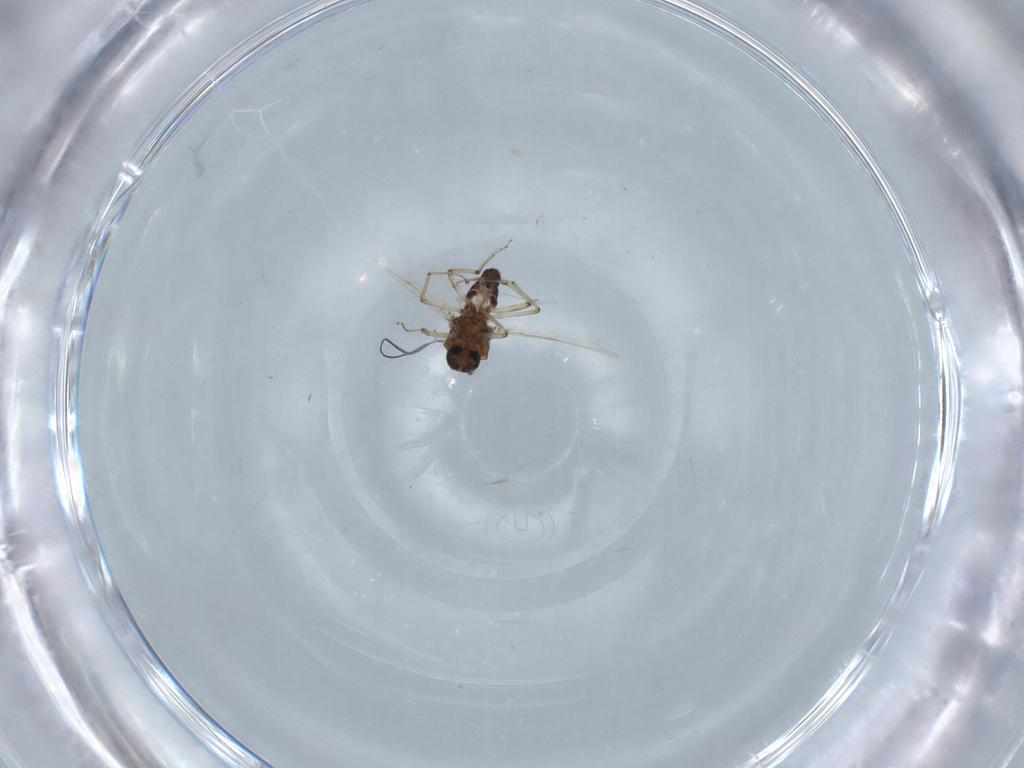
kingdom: Animalia
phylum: Arthropoda
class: Insecta
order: Diptera
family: Ceratopogonidae
